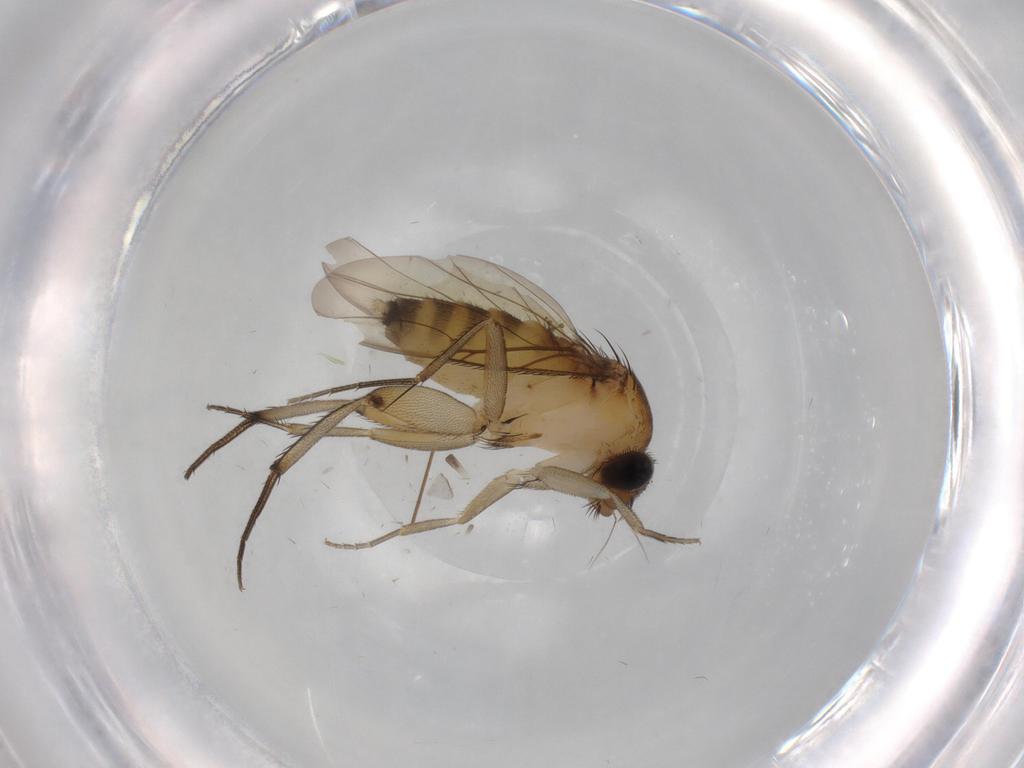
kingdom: Animalia
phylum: Arthropoda
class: Insecta
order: Diptera
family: Phoridae
